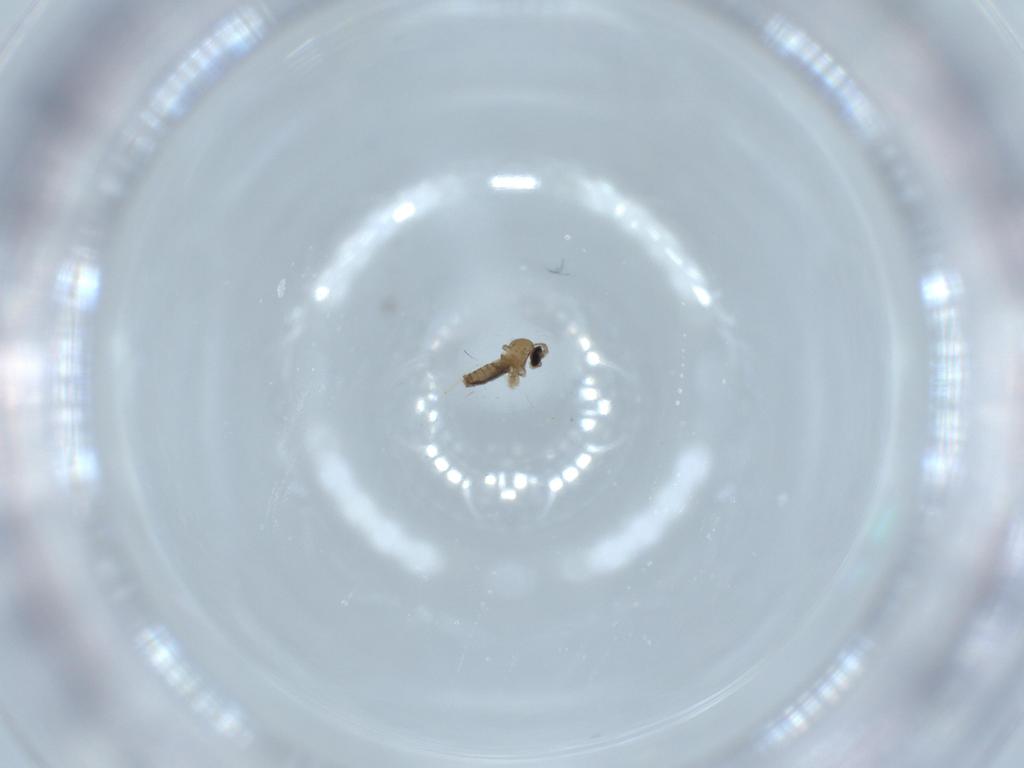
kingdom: Animalia
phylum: Arthropoda
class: Insecta
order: Diptera
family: Cecidomyiidae
